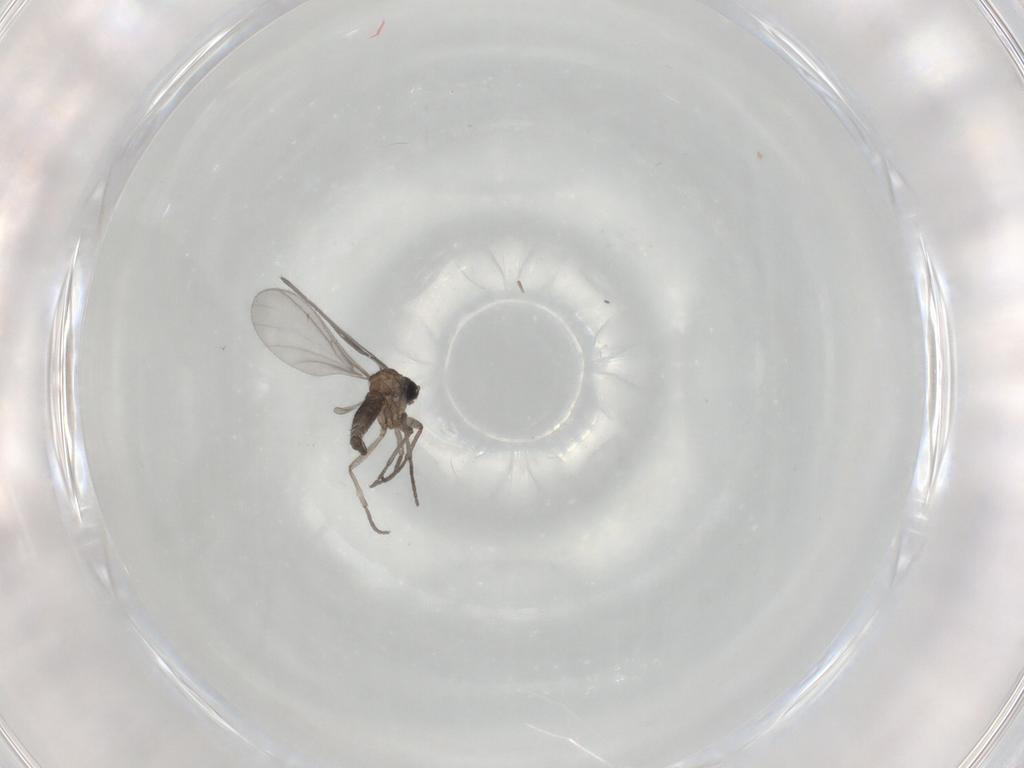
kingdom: Animalia
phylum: Arthropoda
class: Insecta
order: Diptera
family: Sciaridae
